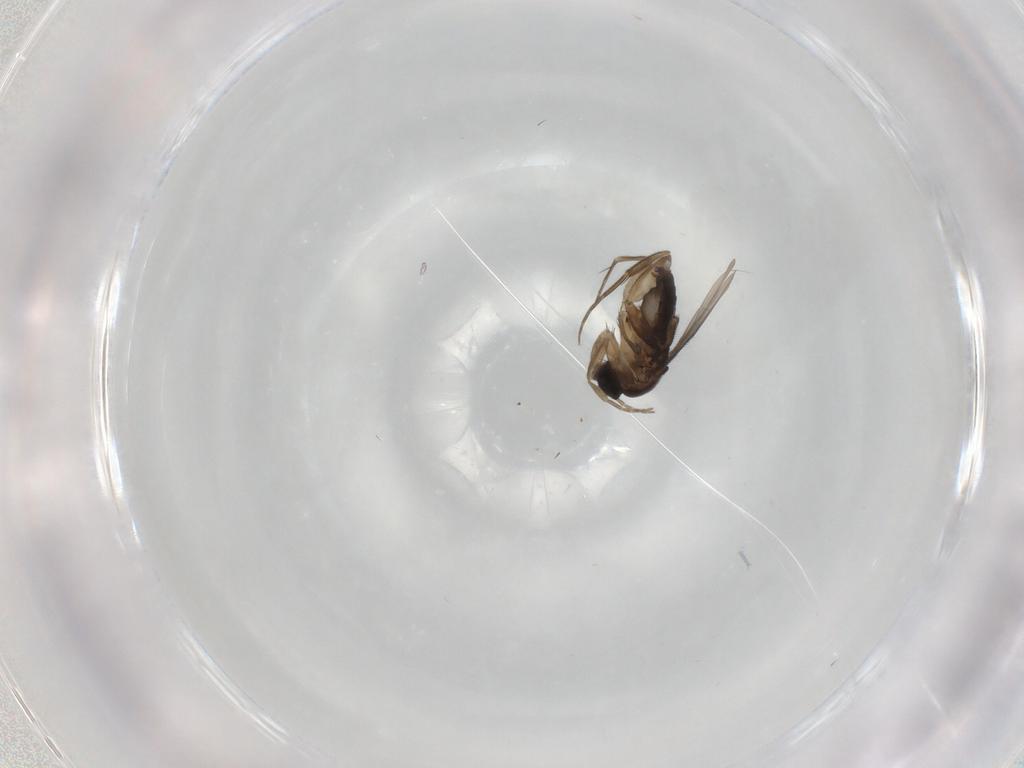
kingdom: Animalia
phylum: Arthropoda
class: Insecta
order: Diptera
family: Phoridae
